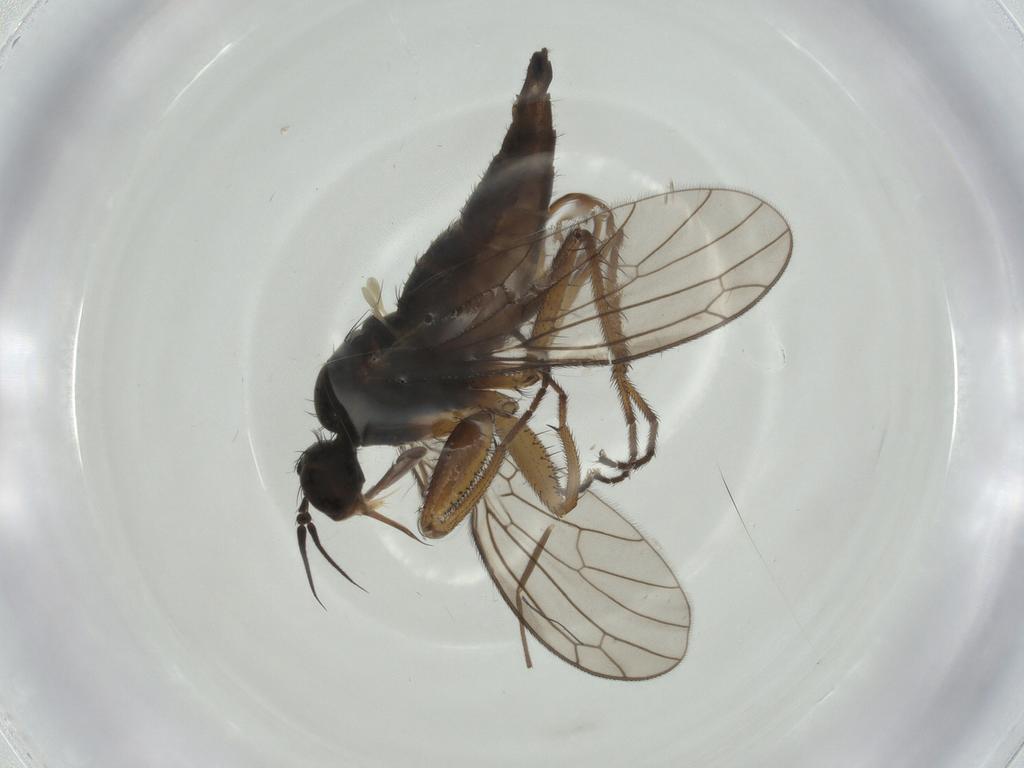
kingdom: Animalia
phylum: Arthropoda
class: Insecta
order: Diptera
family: Empididae
